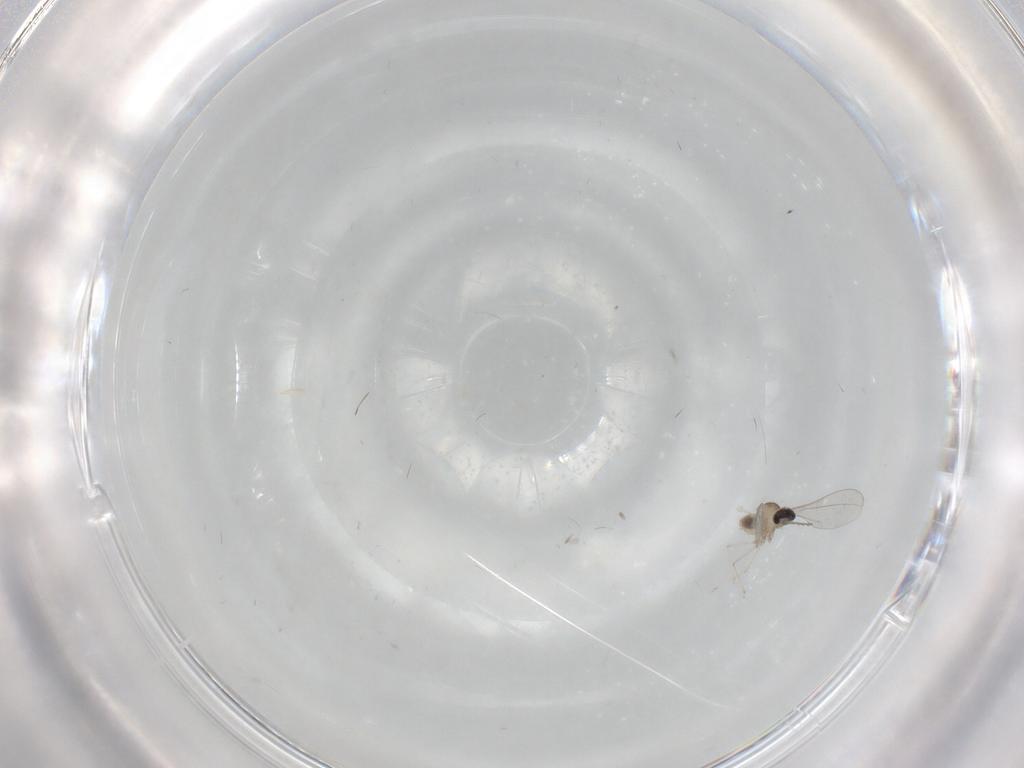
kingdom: Animalia
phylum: Arthropoda
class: Insecta
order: Diptera
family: Cecidomyiidae
